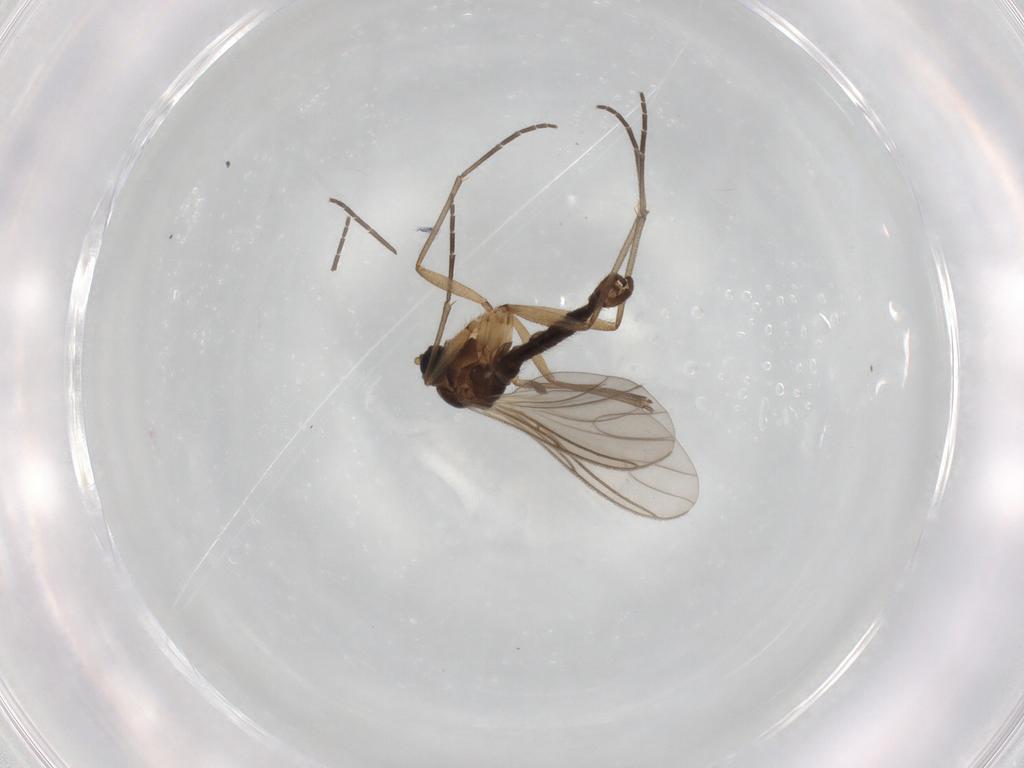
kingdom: Animalia
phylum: Arthropoda
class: Insecta
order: Diptera
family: Sciaridae
